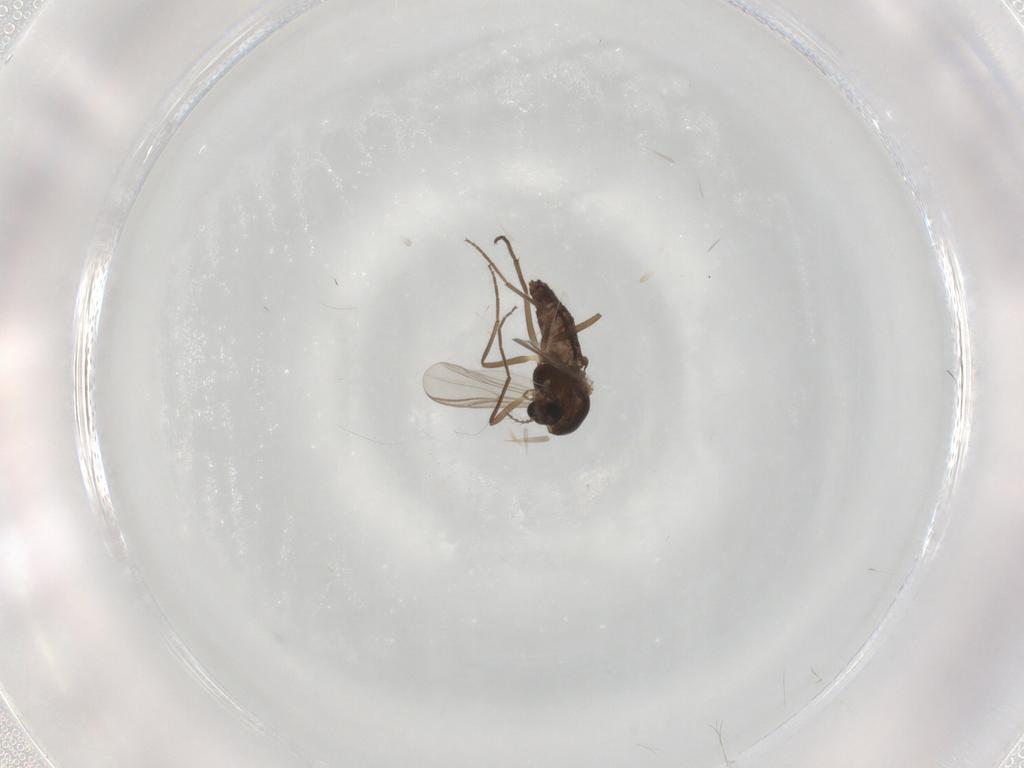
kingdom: Animalia
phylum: Arthropoda
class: Insecta
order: Diptera
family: Chironomidae
